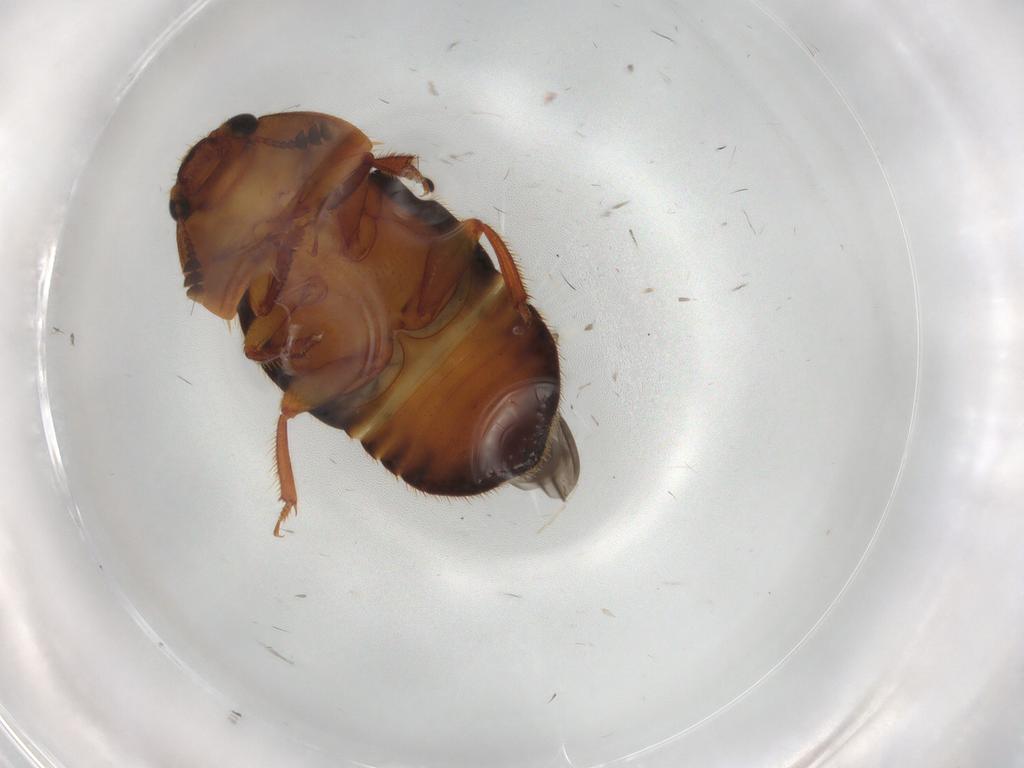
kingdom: Animalia
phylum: Arthropoda
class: Insecta
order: Coleoptera
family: Nitidulidae
